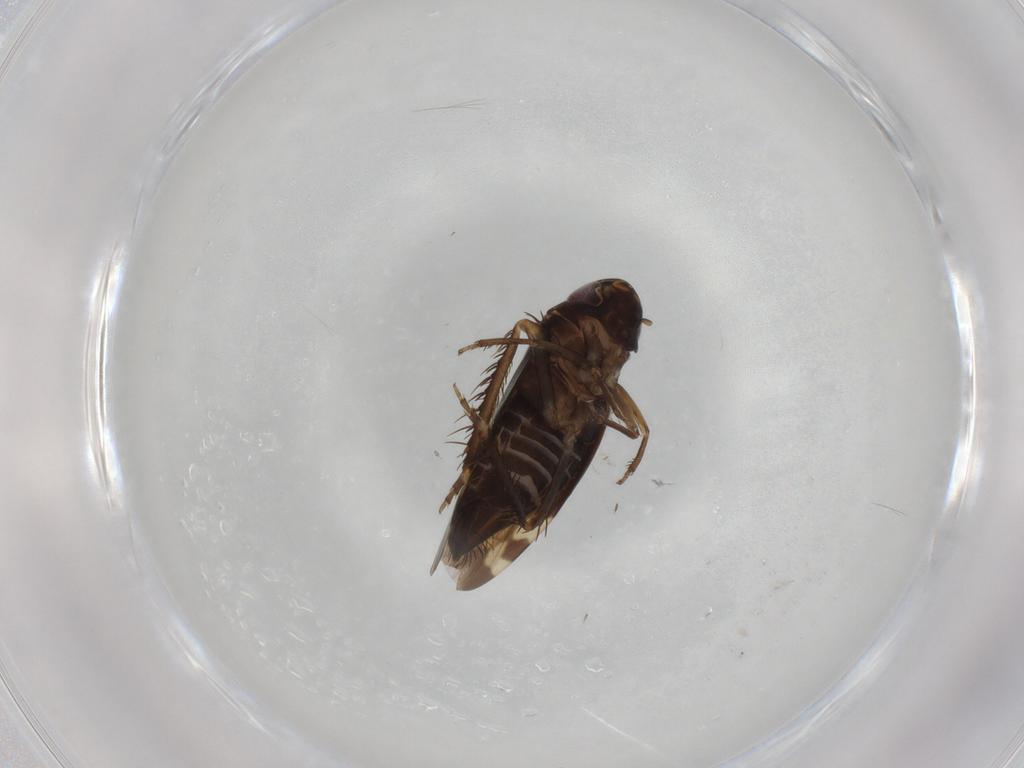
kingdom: Animalia
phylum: Arthropoda
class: Insecta
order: Hemiptera
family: Cicadellidae
